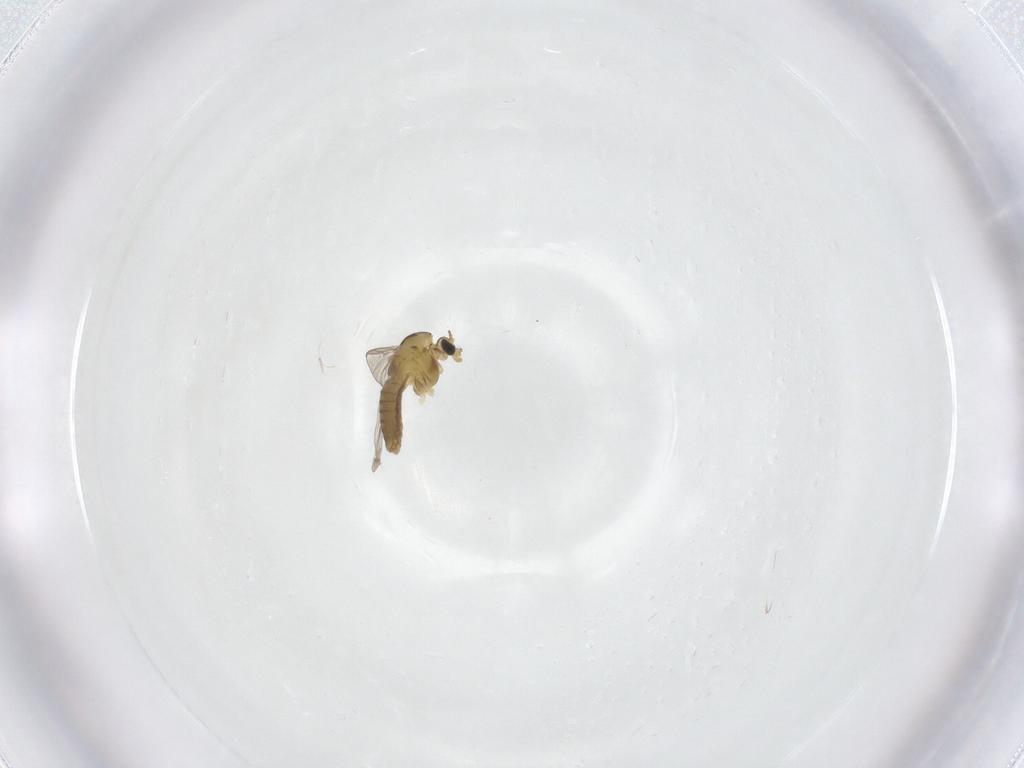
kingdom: Animalia
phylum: Arthropoda
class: Insecta
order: Diptera
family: Chironomidae
